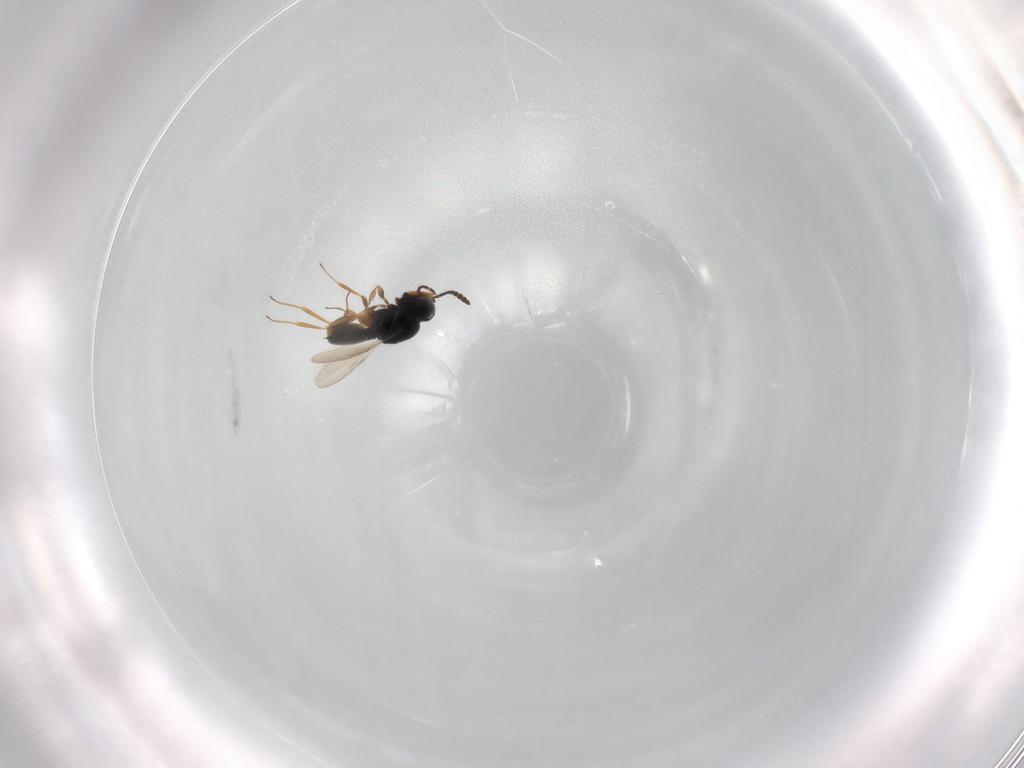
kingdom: Animalia
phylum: Arthropoda
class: Insecta
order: Hymenoptera
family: Scelionidae
